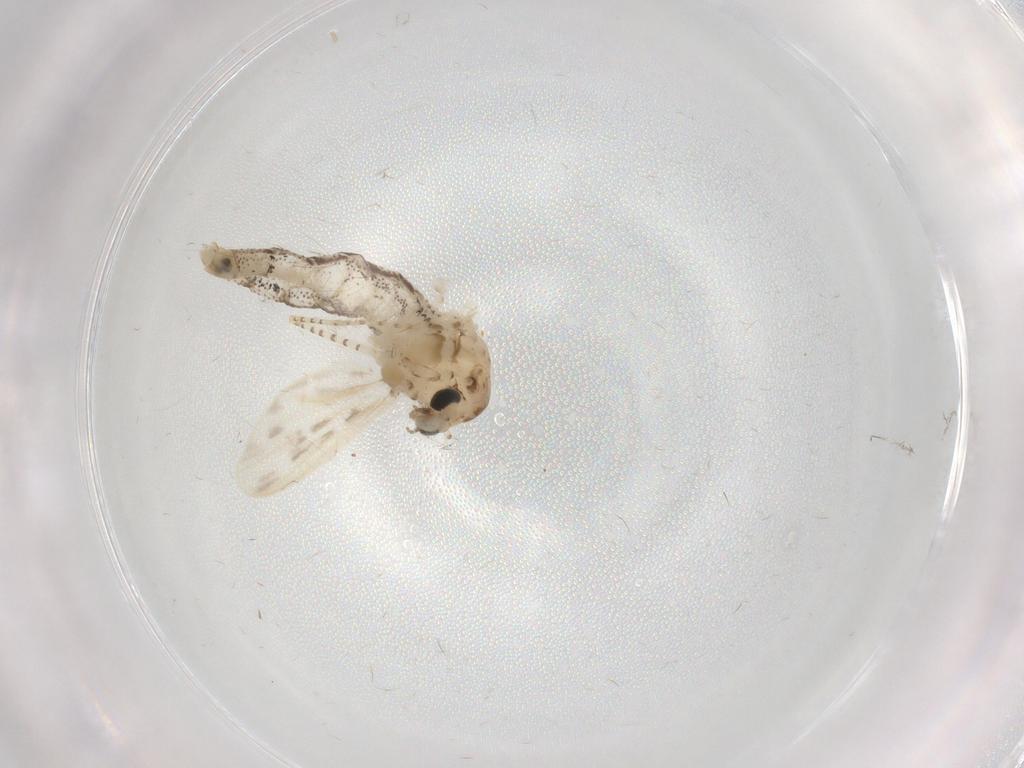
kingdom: Animalia
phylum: Arthropoda
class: Insecta
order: Diptera
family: Chaoboridae
